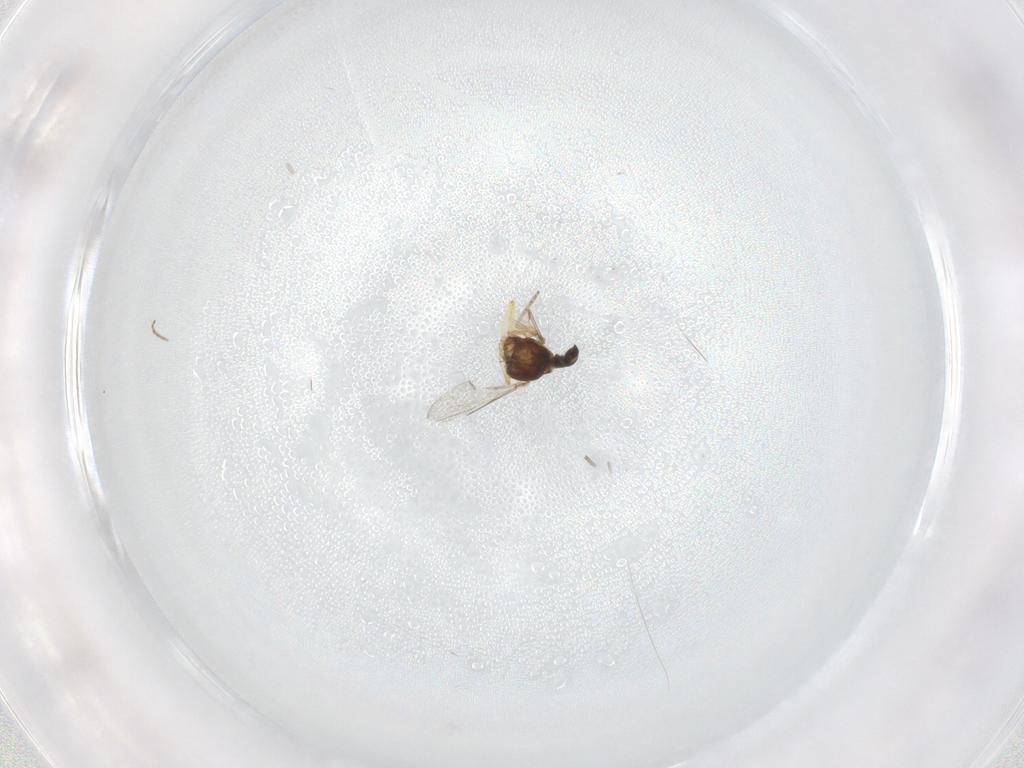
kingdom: Animalia
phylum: Arthropoda
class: Insecta
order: Diptera
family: Ceratopogonidae
